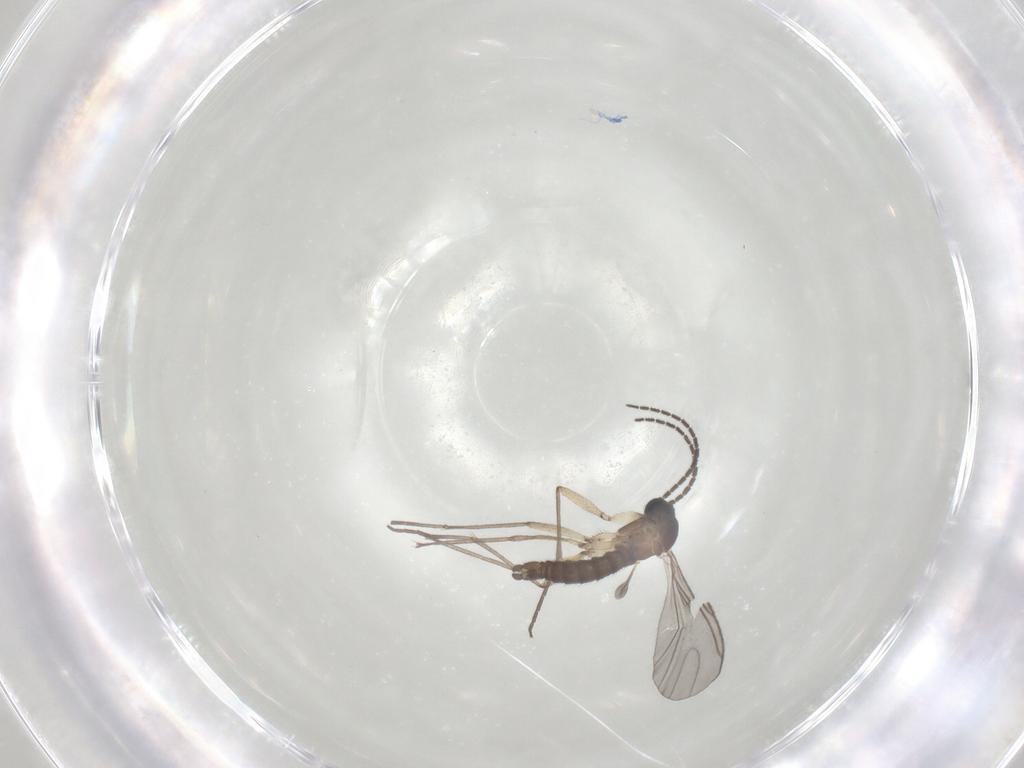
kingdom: Animalia
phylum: Arthropoda
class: Insecta
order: Diptera
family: Sciaridae
